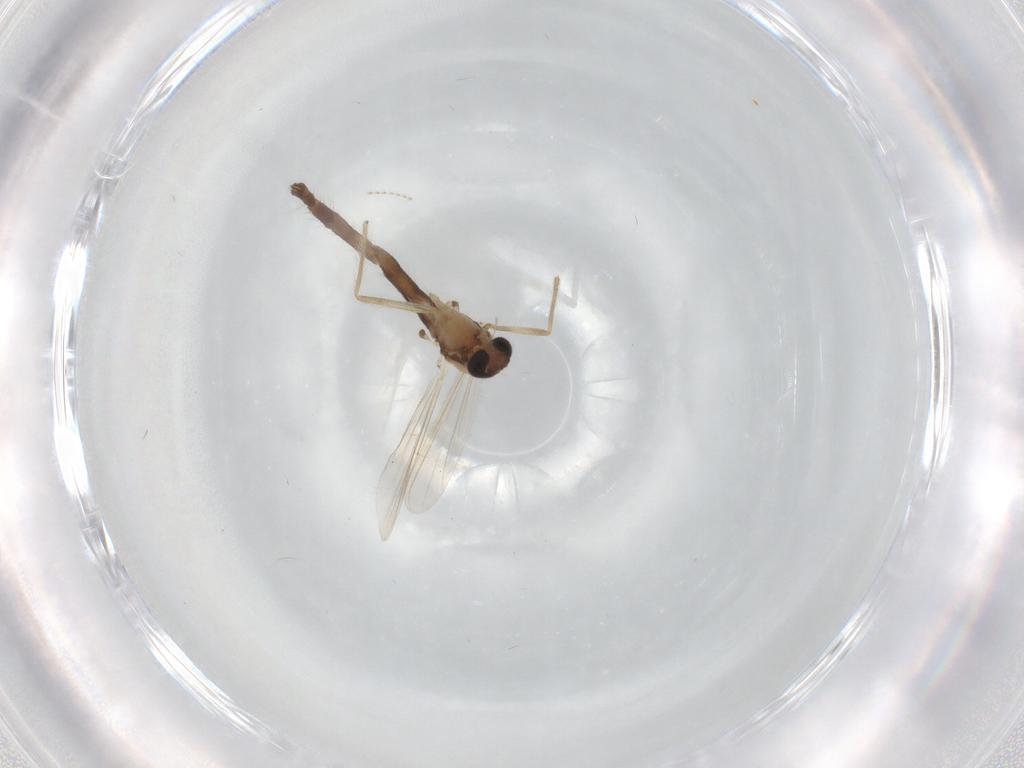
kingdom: Animalia
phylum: Arthropoda
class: Insecta
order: Diptera
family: Chironomidae
